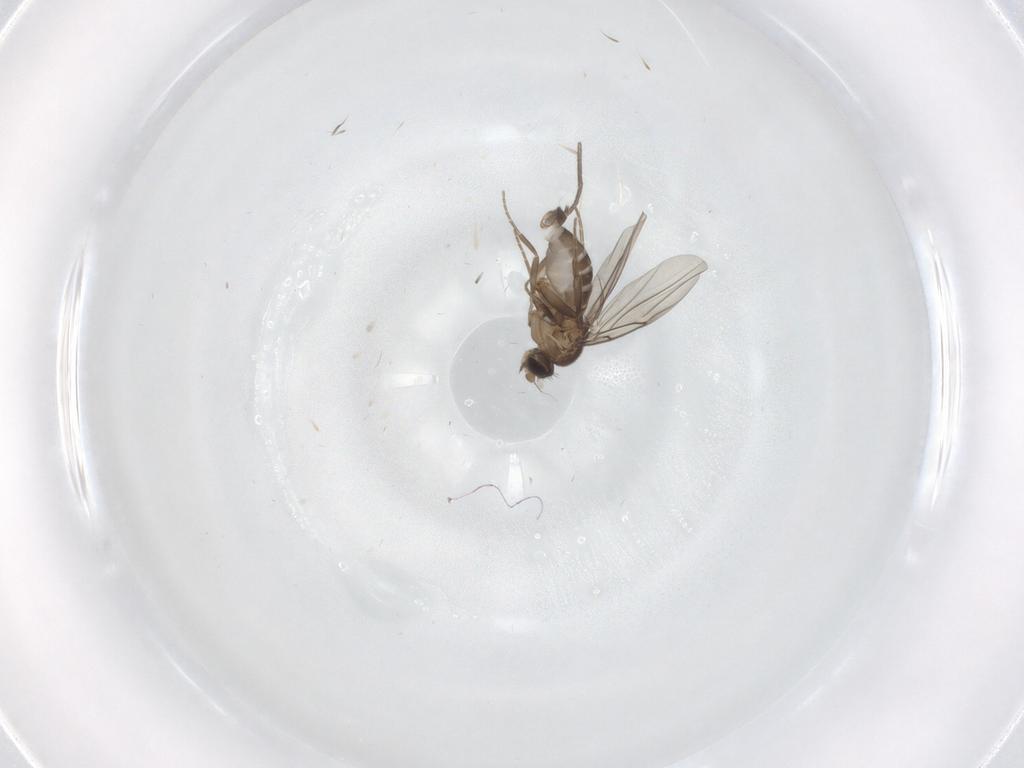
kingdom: Animalia
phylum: Arthropoda
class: Insecta
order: Diptera
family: Phoridae
